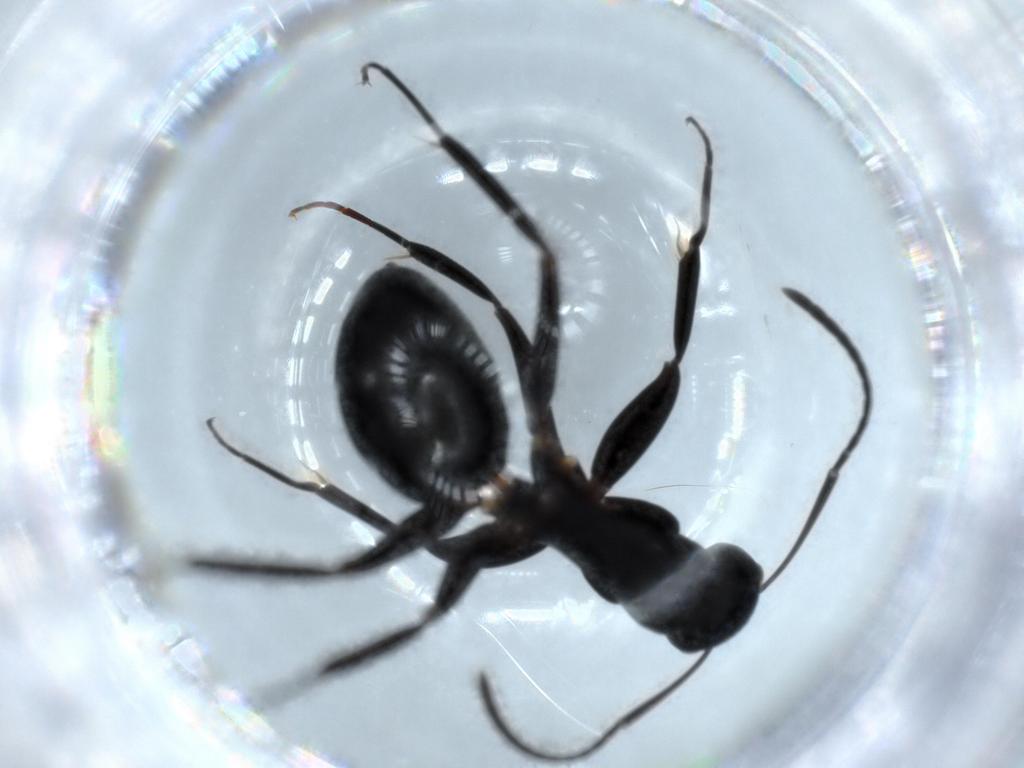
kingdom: Animalia
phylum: Arthropoda
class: Insecta
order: Hymenoptera
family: Formicidae
